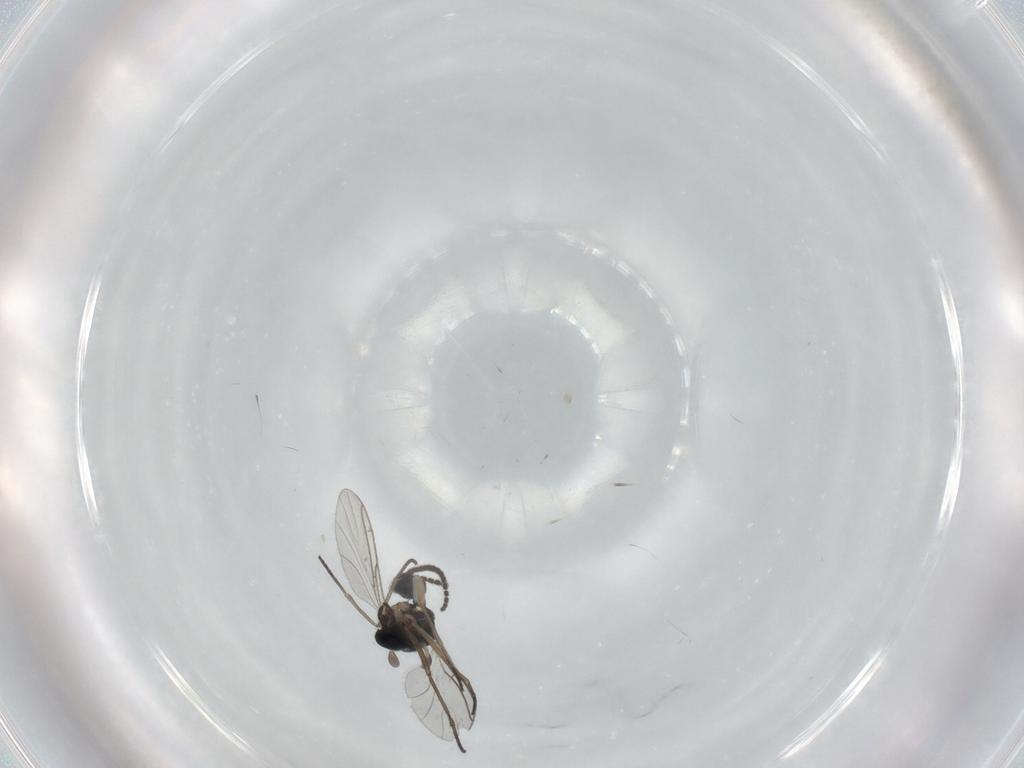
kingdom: Animalia
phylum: Arthropoda
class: Insecta
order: Diptera
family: Sciaridae
